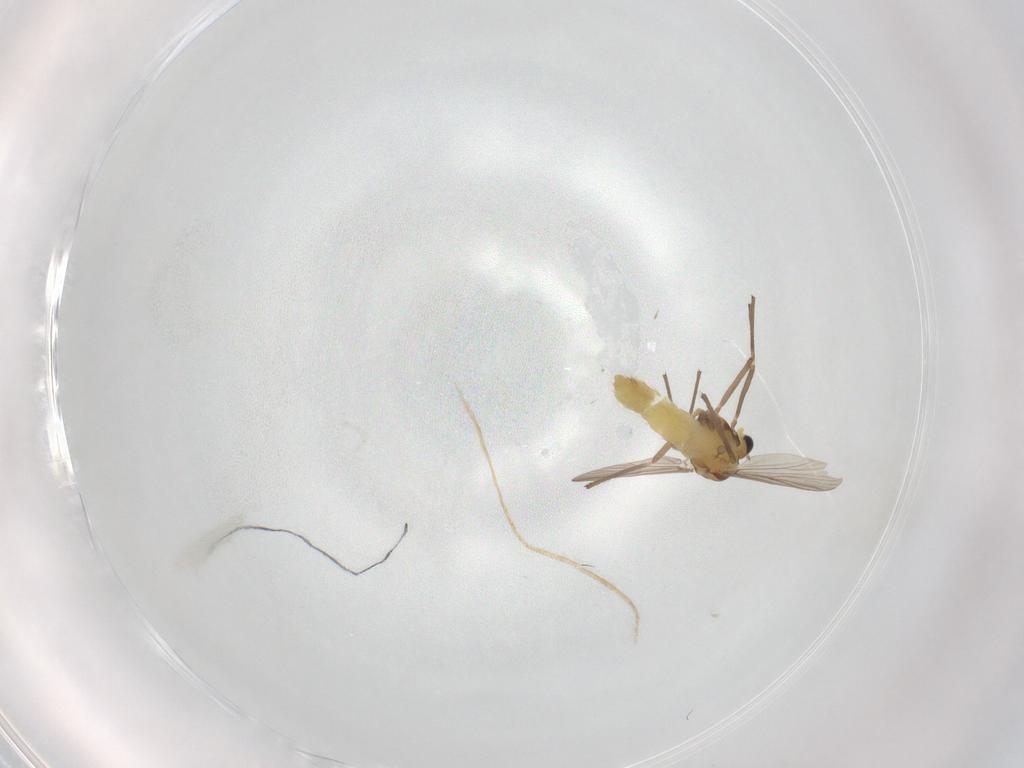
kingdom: Animalia
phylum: Arthropoda
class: Insecta
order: Diptera
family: Chironomidae
